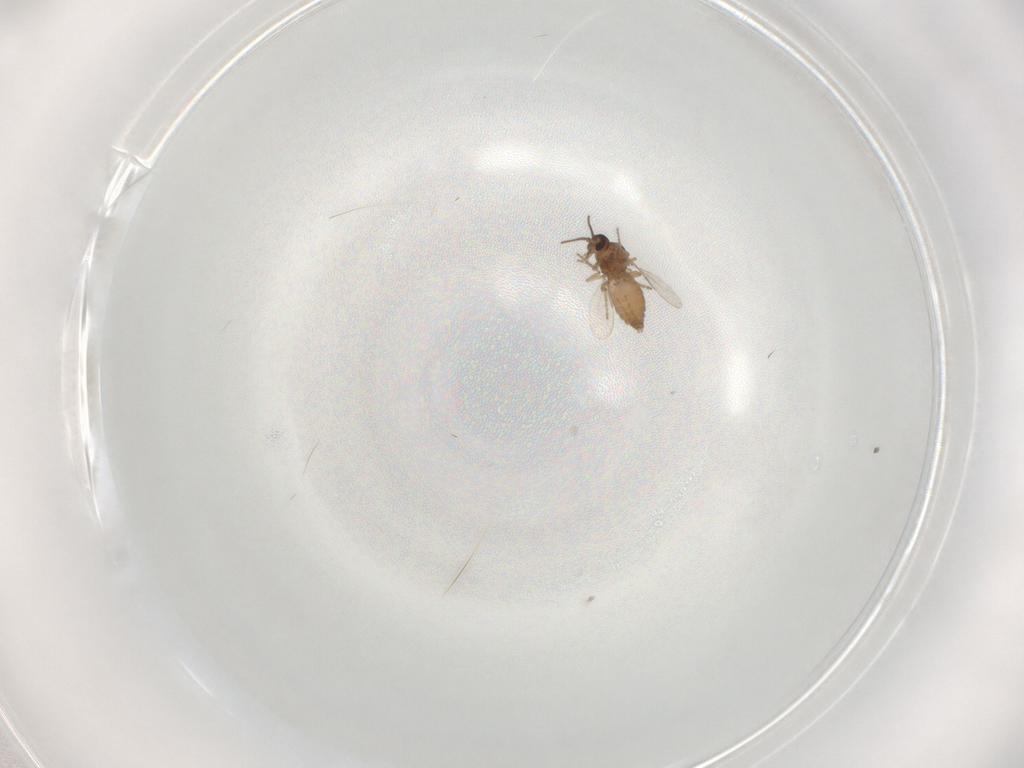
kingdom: Animalia
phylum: Arthropoda
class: Insecta
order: Diptera
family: Ceratopogonidae
